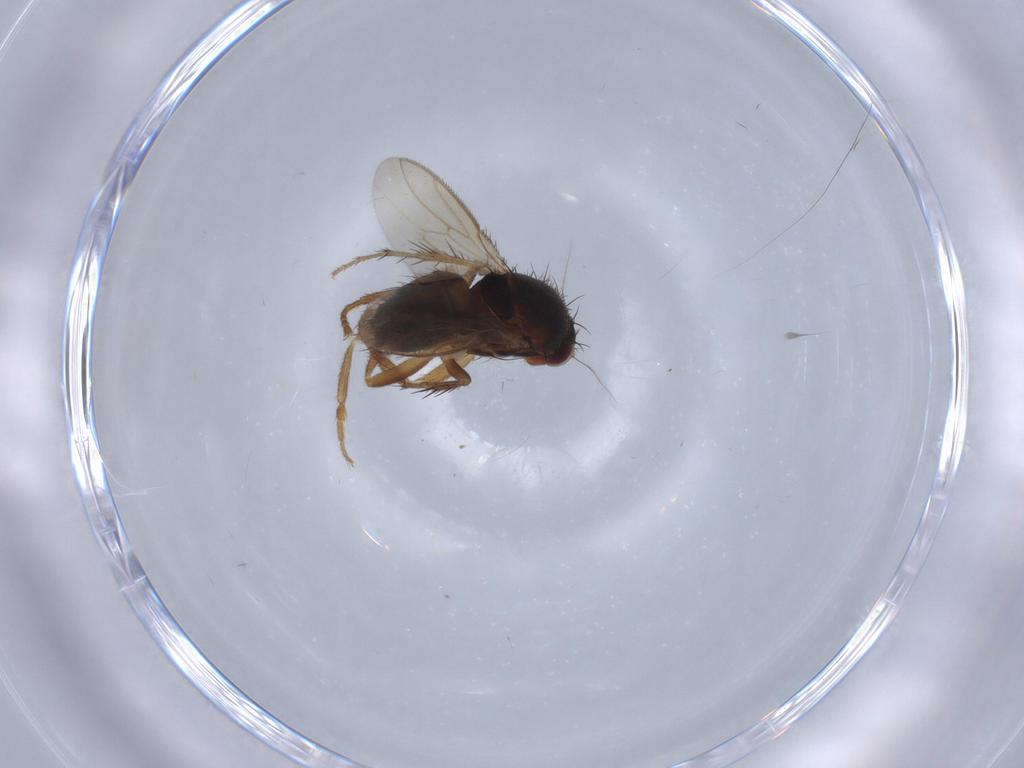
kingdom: Animalia
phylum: Arthropoda
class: Insecta
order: Diptera
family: Sphaeroceridae
